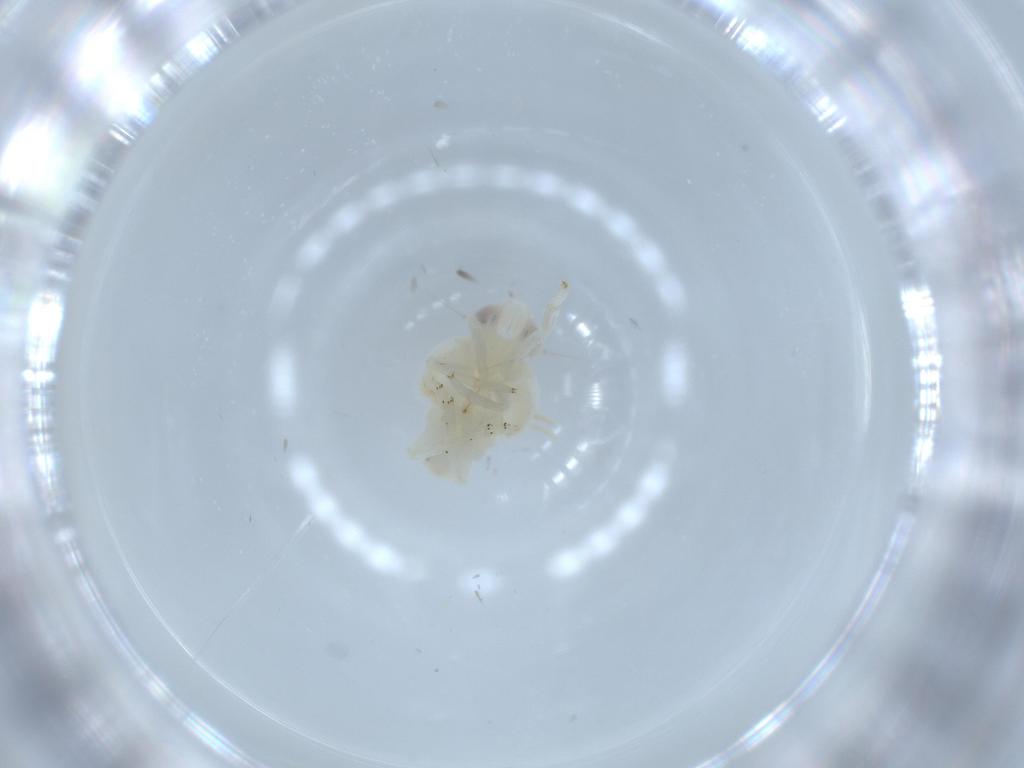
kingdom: Animalia
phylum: Arthropoda
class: Insecta
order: Hemiptera
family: Nogodinidae
